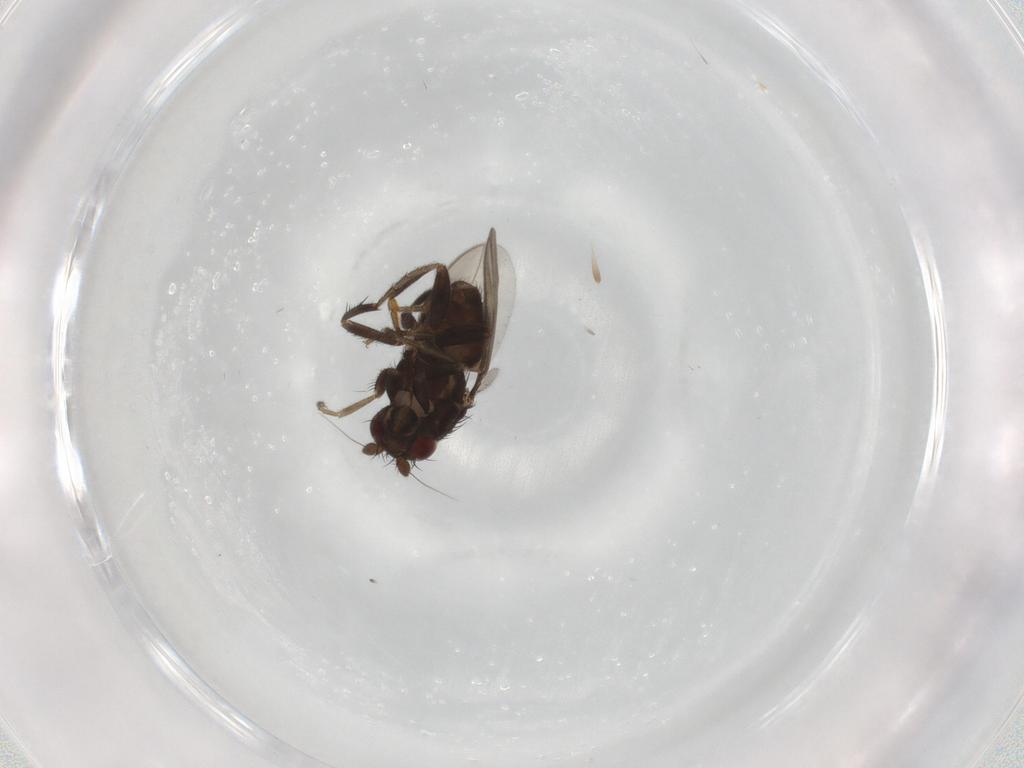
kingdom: Animalia
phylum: Arthropoda
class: Insecta
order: Diptera
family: Sphaeroceridae
